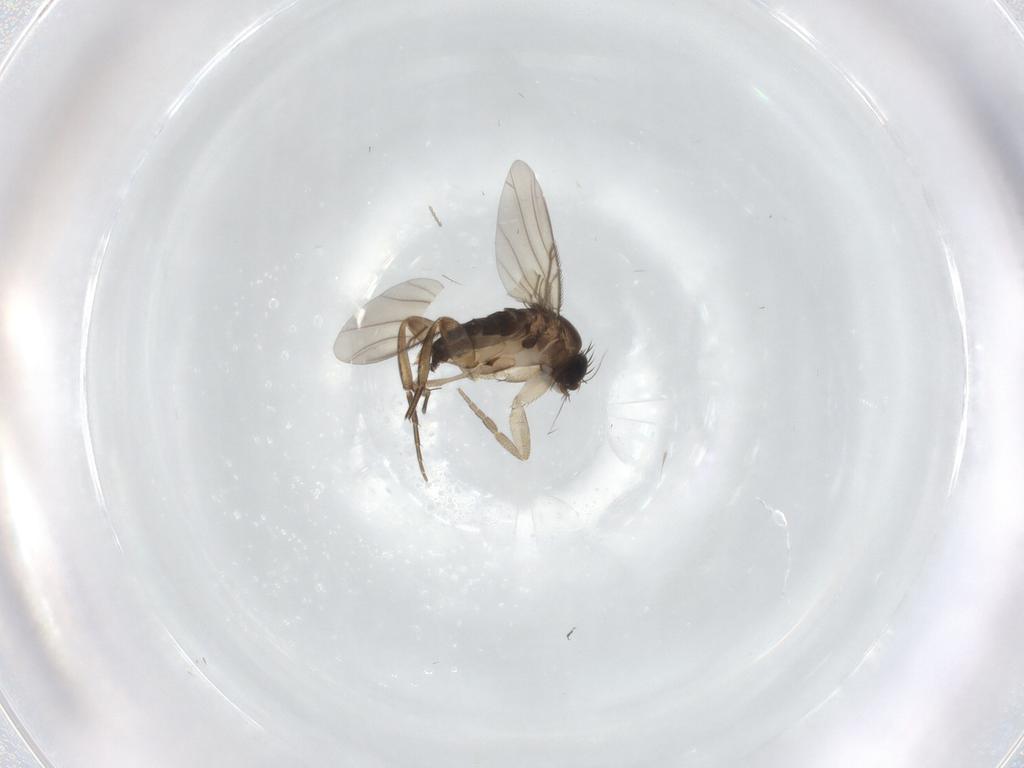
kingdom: Animalia
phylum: Arthropoda
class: Insecta
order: Diptera
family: Phoridae
